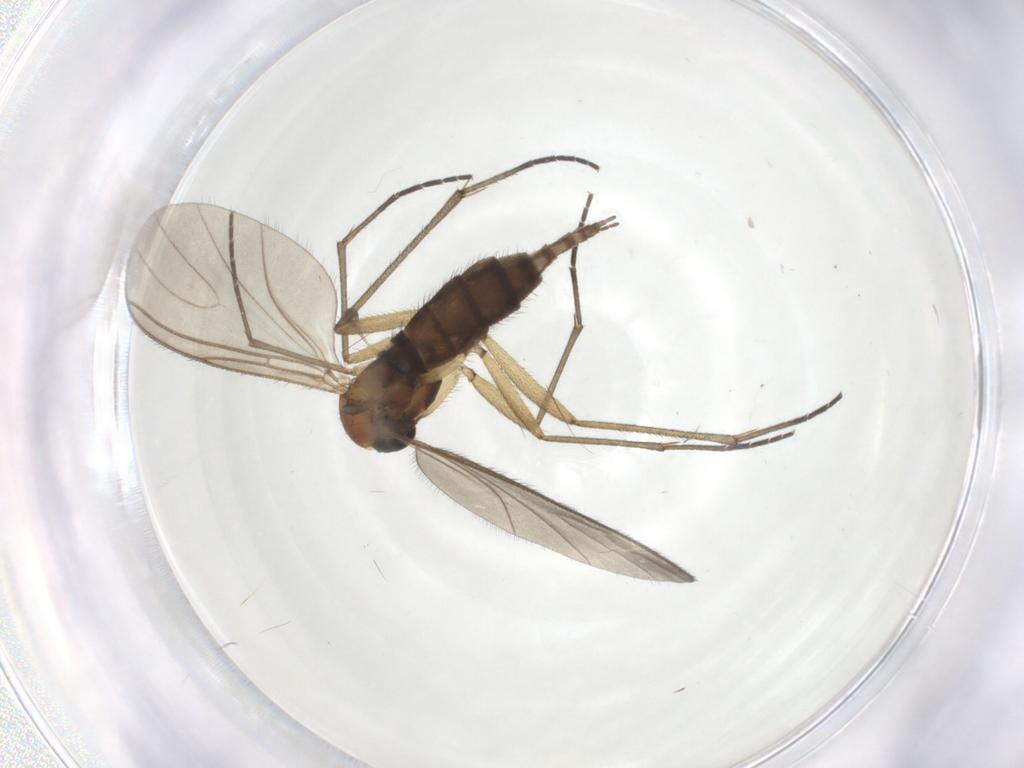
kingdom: Animalia
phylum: Arthropoda
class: Insecta
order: Diptera
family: Sciaridae
